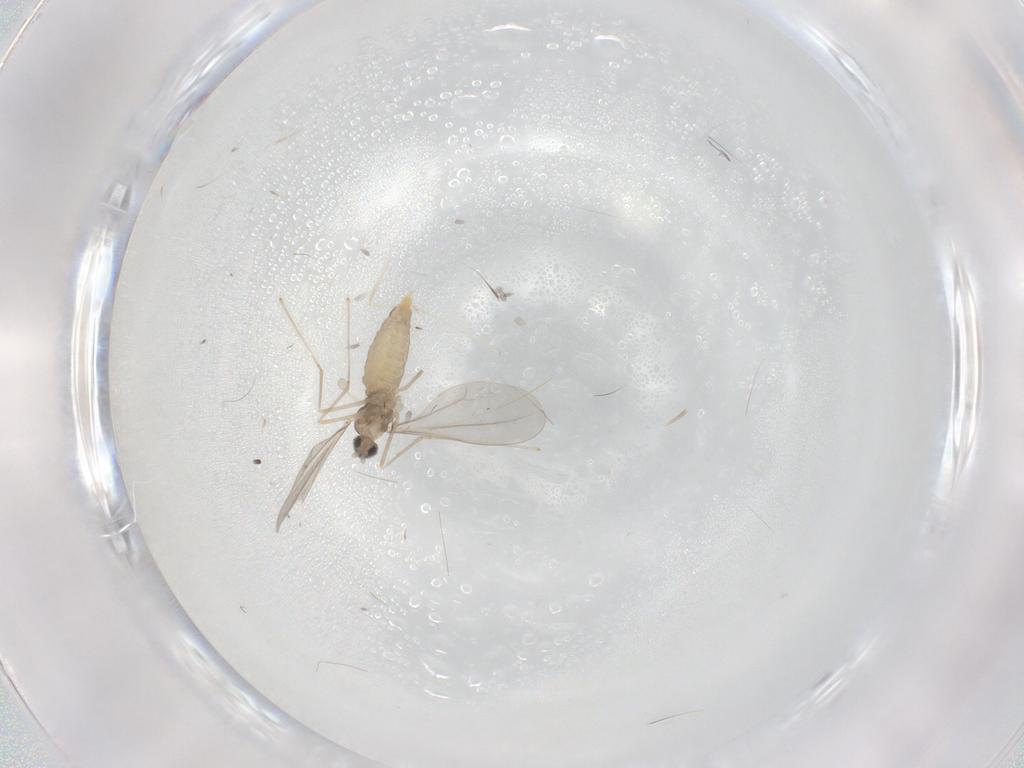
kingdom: Animalia
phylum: Arthropoda
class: Insecta
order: Diptera
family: Cecidomyiidae
